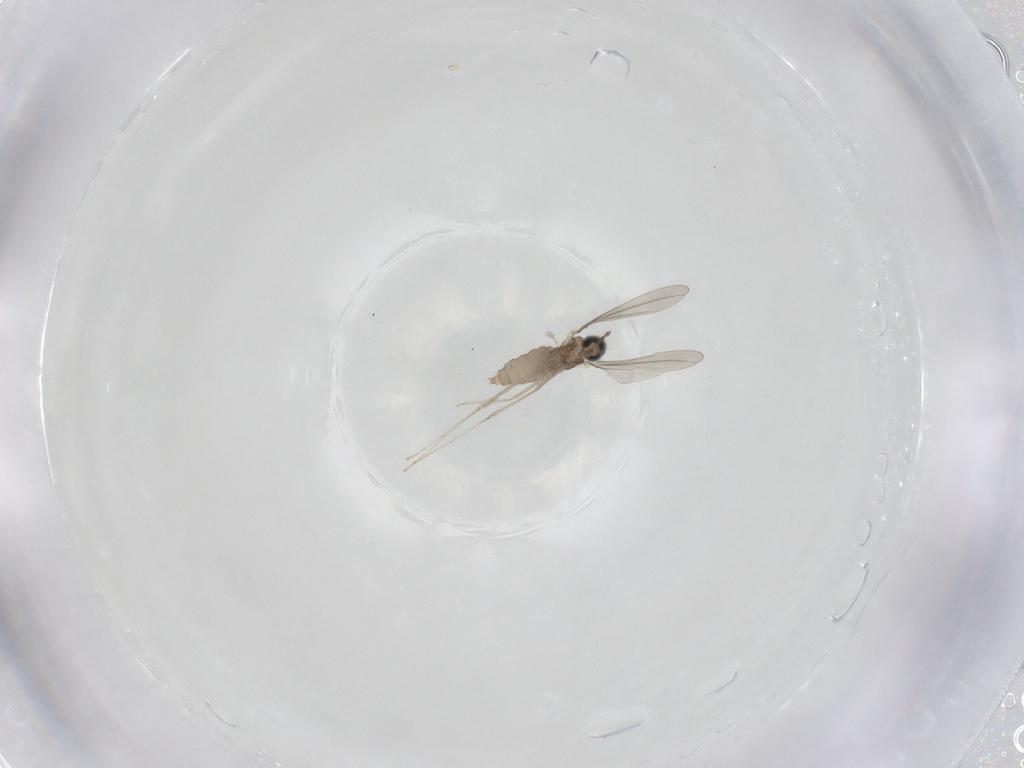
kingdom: Animalia
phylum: Arthropoda
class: Insecta
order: Diptera
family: Cecidomyiidae
